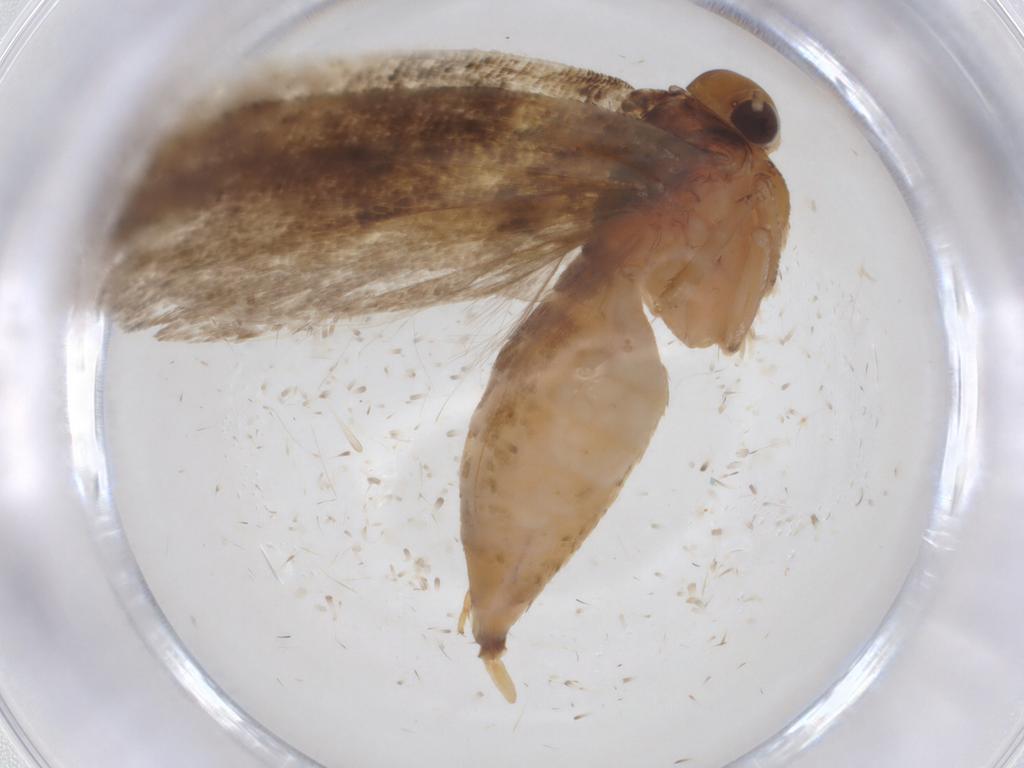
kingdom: Animalia
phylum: Arthropoda
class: Insecta
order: Lepidoptera
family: Gelechiidae
